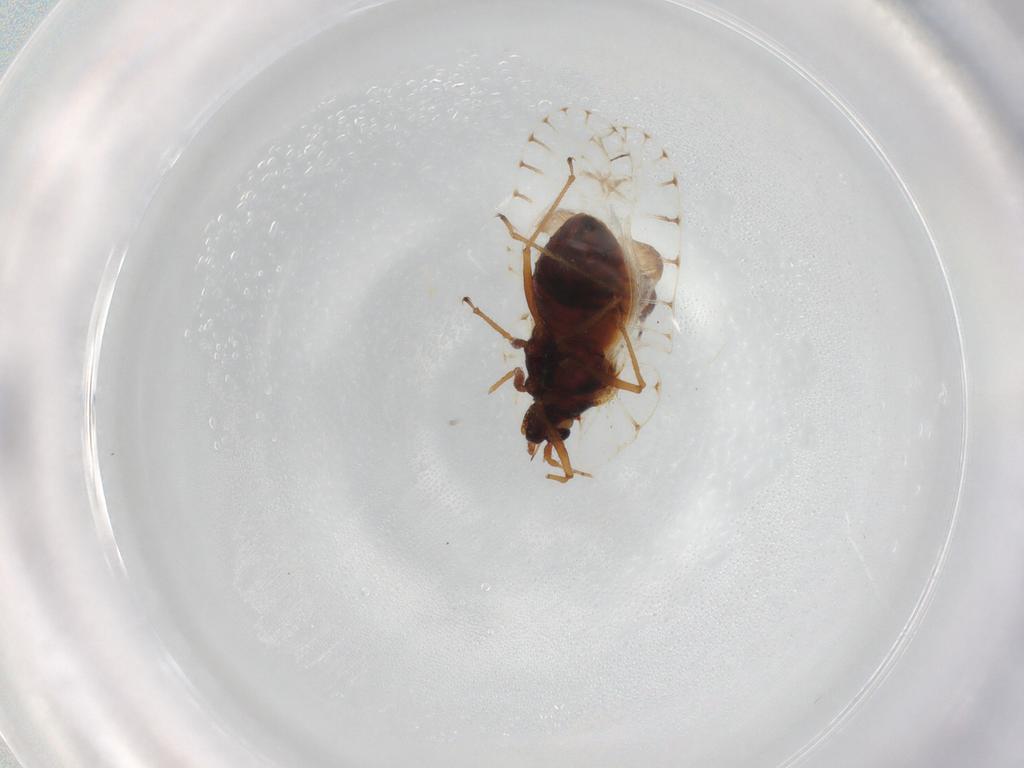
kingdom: Animalia
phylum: Arthropoda
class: Insecta
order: Hemiptera
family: Tingidae
